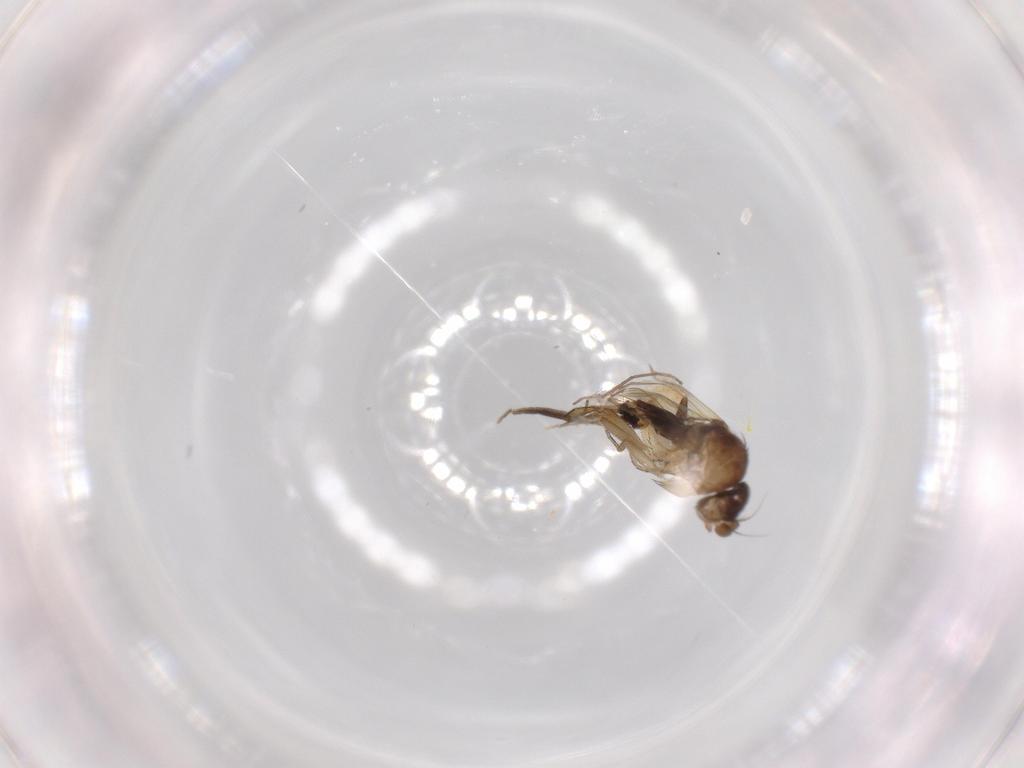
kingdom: Animalia
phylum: Arthropoda
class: Insecta
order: Diptera
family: Phoridae
